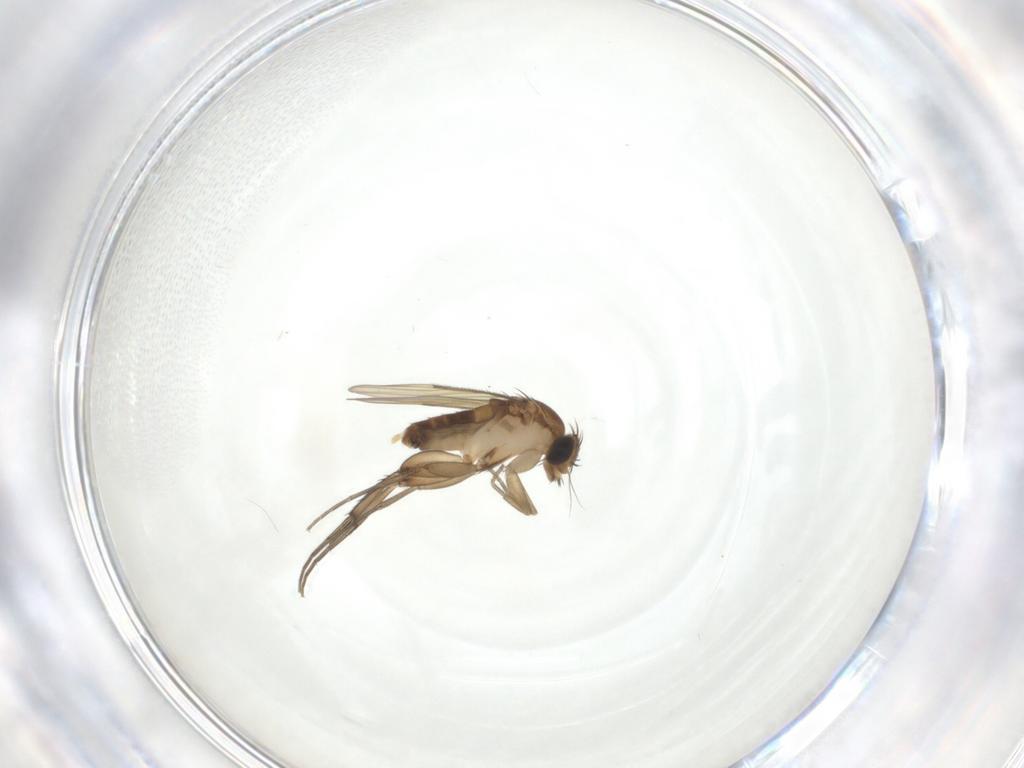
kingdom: Animalia
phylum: Arthropoda
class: Insecta
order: Diptera
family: Phoridae
